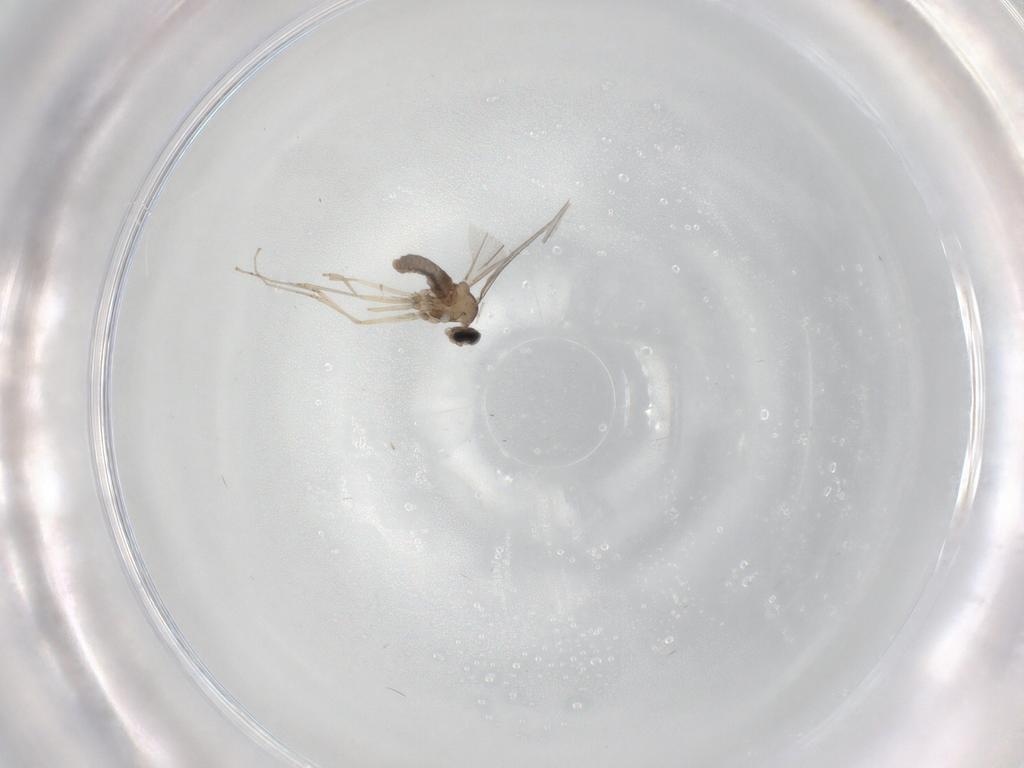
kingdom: Animalia
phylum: Arthropoda
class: Insecta
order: Diptera
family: Cecidomyiidae
